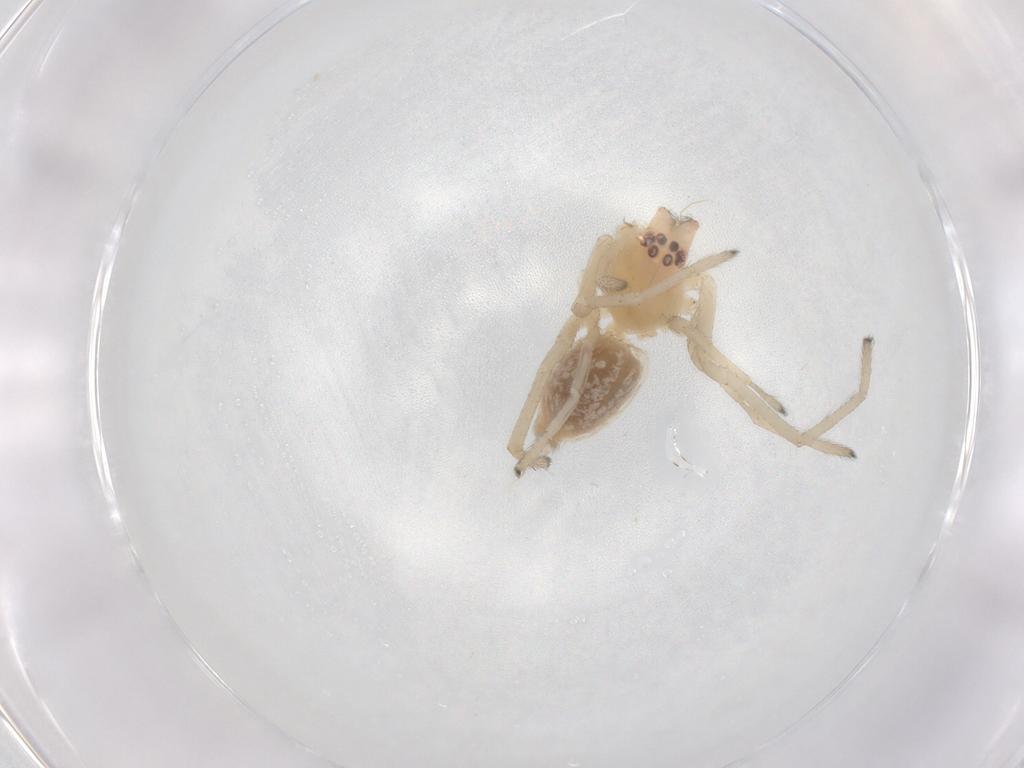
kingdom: Animalia
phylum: Arthropoda
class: Arachnida
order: Araneae
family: Cheiracanthiidae
